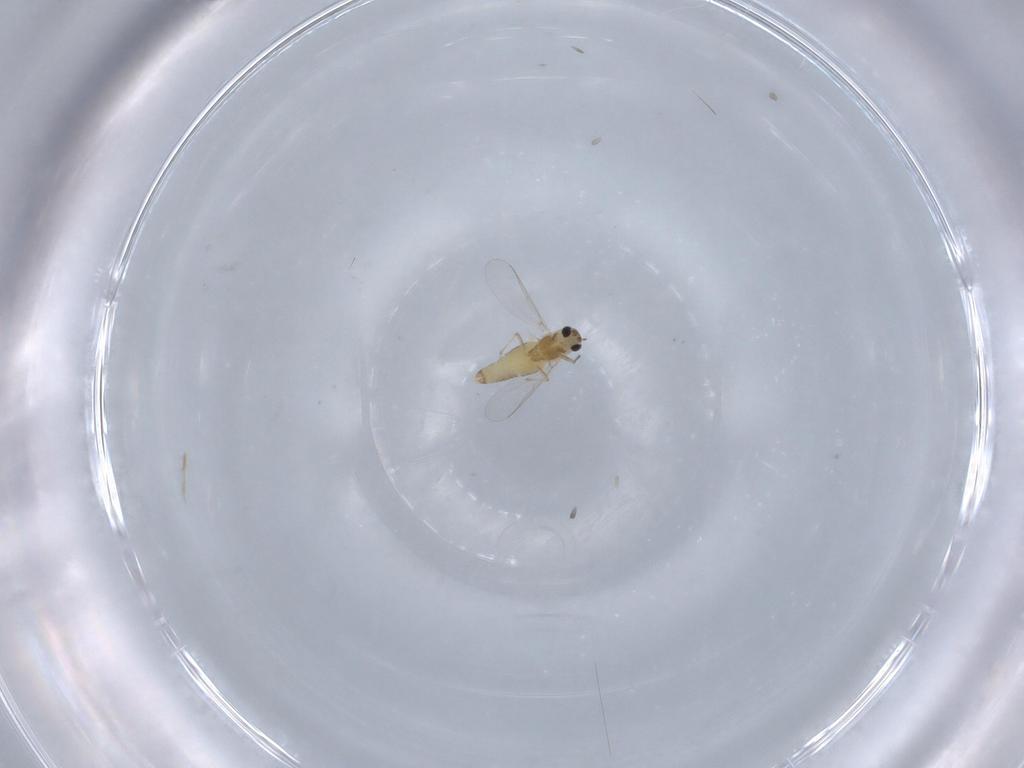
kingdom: Animalia
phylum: Arthropoda
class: Insecta
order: Diptera
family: Chironomidae
